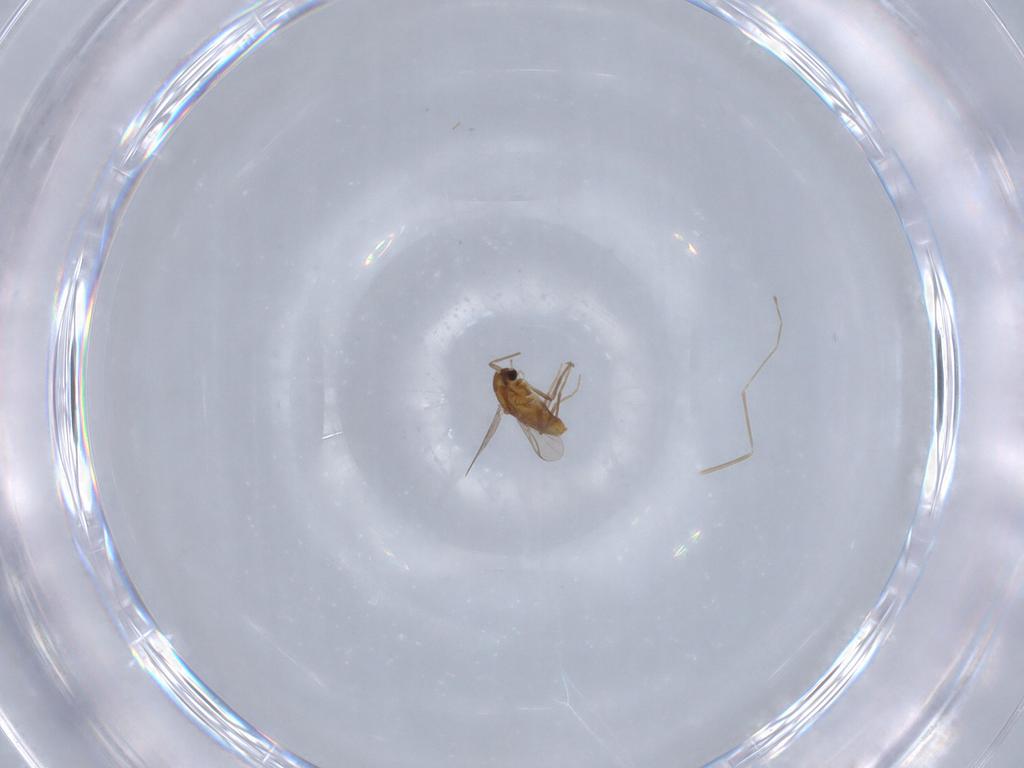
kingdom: Animalia
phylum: Arthropoda
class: Insecta
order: Diptera
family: Chironomidae
